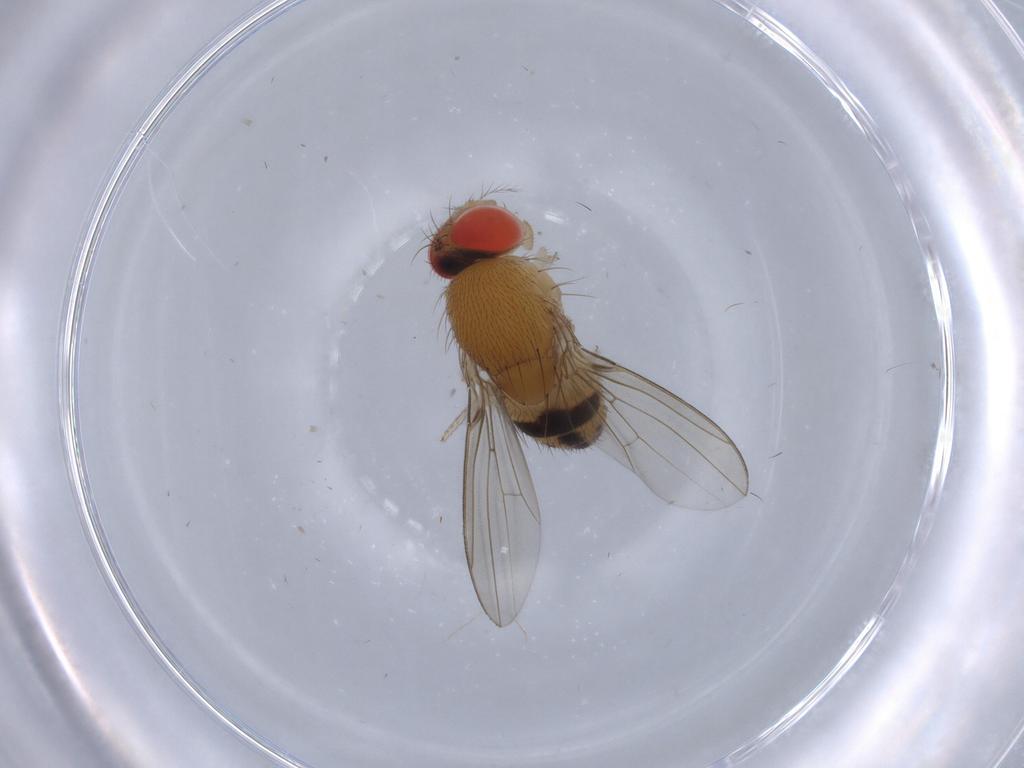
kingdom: Animalia
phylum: Arthropoda
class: Insecta
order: Diptera
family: Drosophilidae
